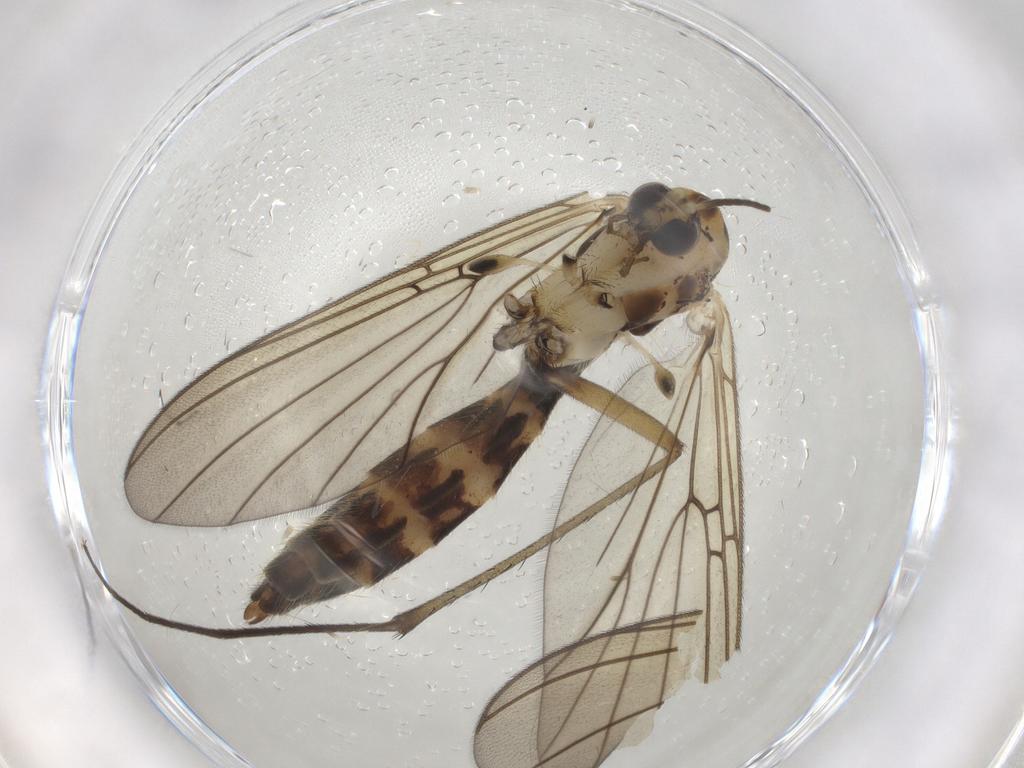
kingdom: Animalia
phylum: Arthropoda
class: Insecta
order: Diptera
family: Mycetophilidae
